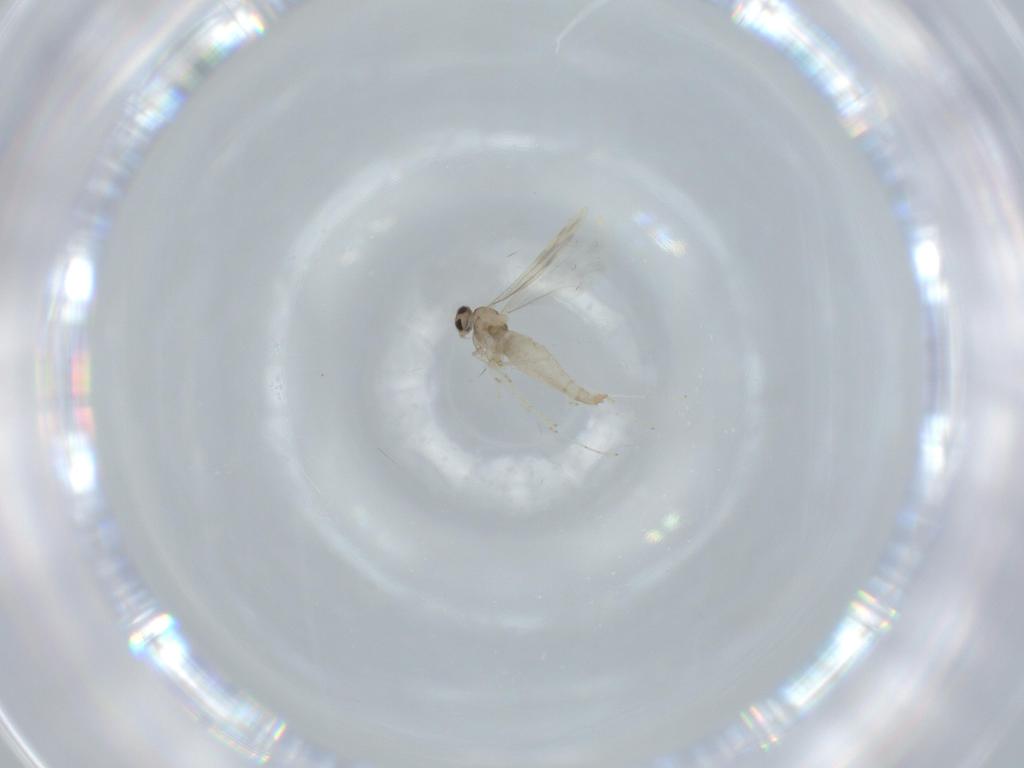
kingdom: Animalia
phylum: Arthropoda
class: Insecta
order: Diptera
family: Cecidomyiidae
